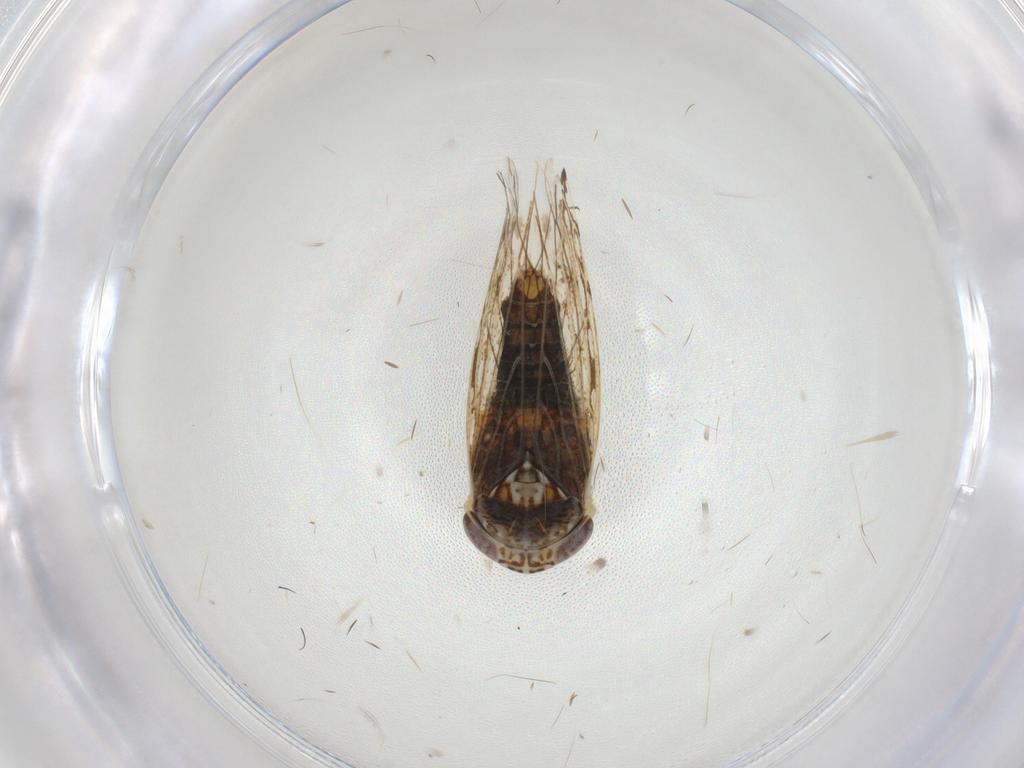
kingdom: Animalia
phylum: Arthropoda
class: Insecta
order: Hemiptera
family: Cicadellidae
